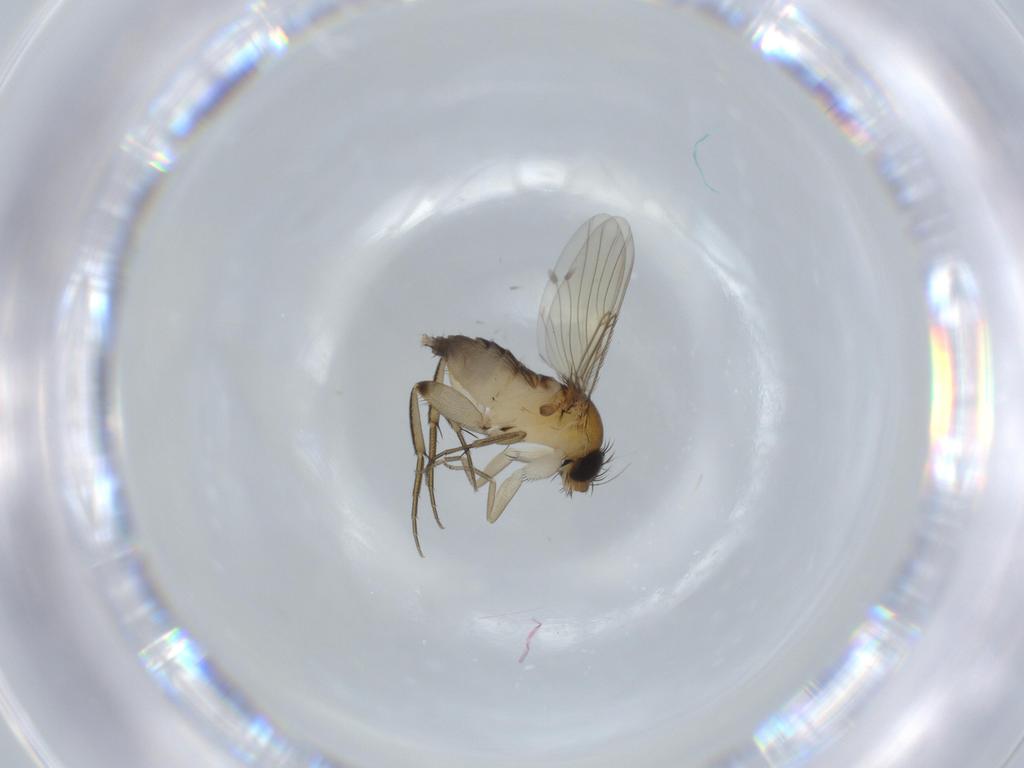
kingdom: Animalia
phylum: Arthropoda
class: Insecta
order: Diptera
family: Phoridae
